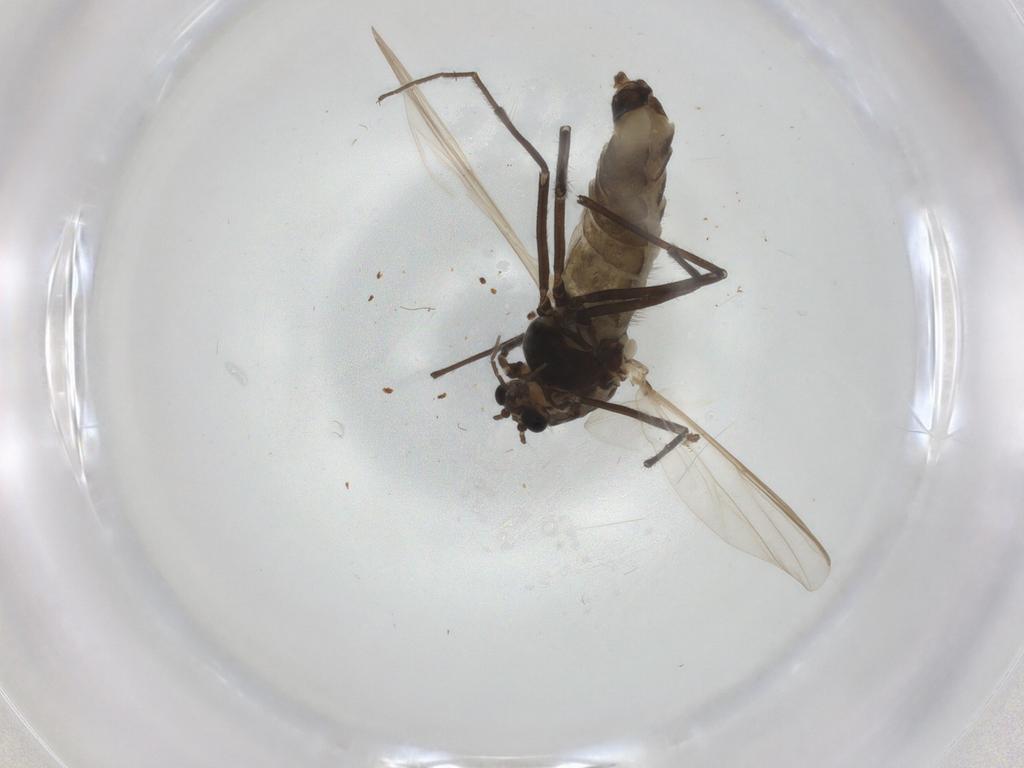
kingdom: Animalia
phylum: Arthropoda
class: Insecta
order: Diptera
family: Chironomidae
